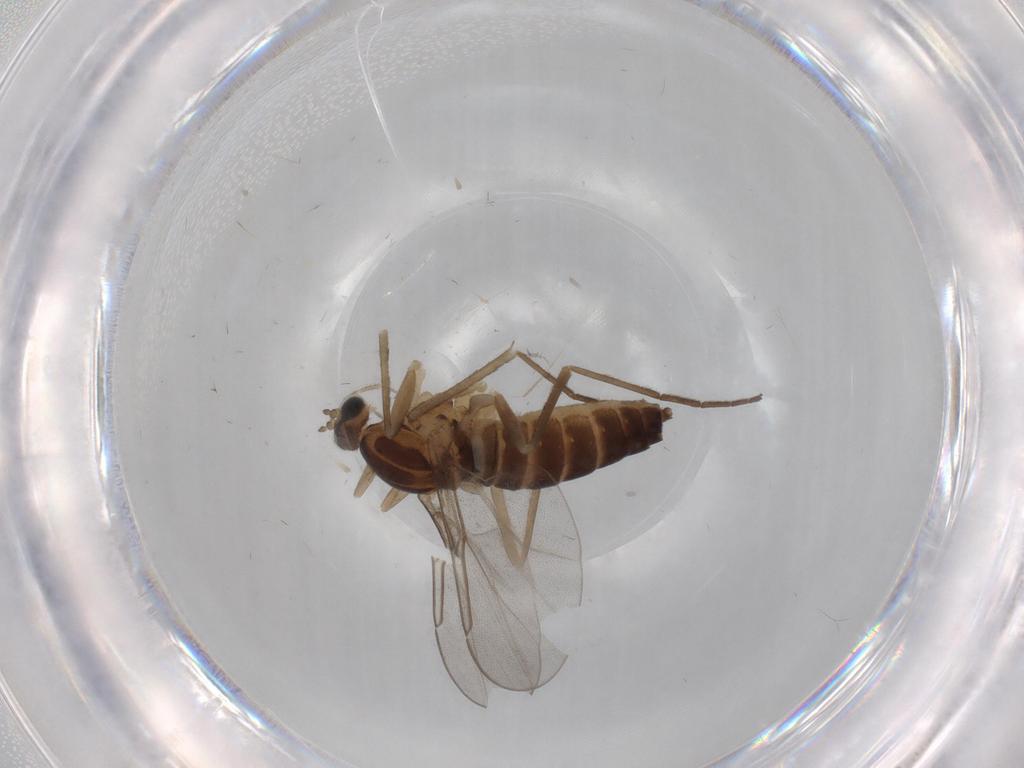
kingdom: Animalia
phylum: Arthropoda
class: Insecta
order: Diptera
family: Cecidomyiidae
